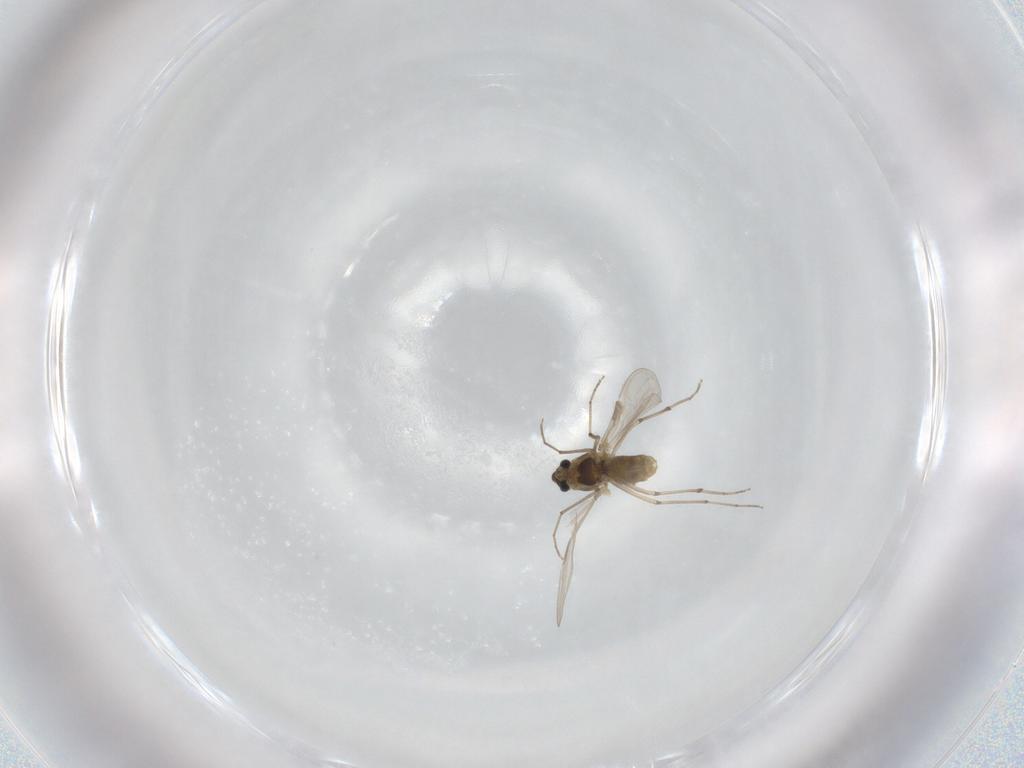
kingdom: Animalia
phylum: Arthropoda
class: Insecta
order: Diptera
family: Chironomidae
